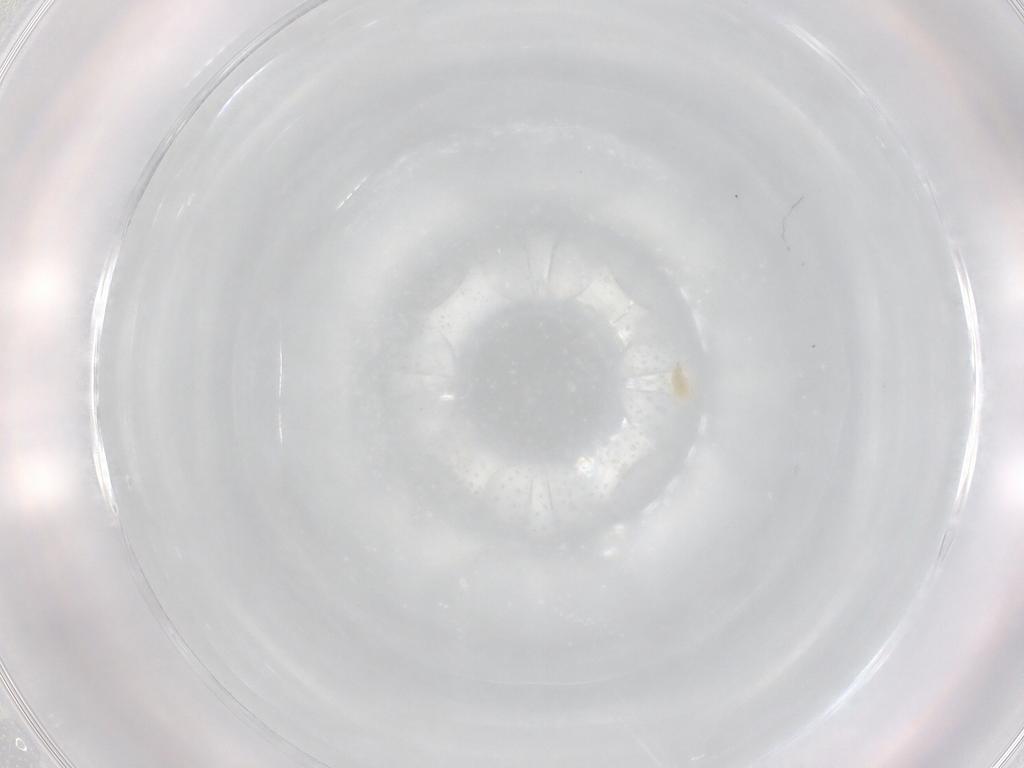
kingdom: Animalia
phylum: Arthropoda
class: Arachnida
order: Trombidiformes
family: Eupodidae
